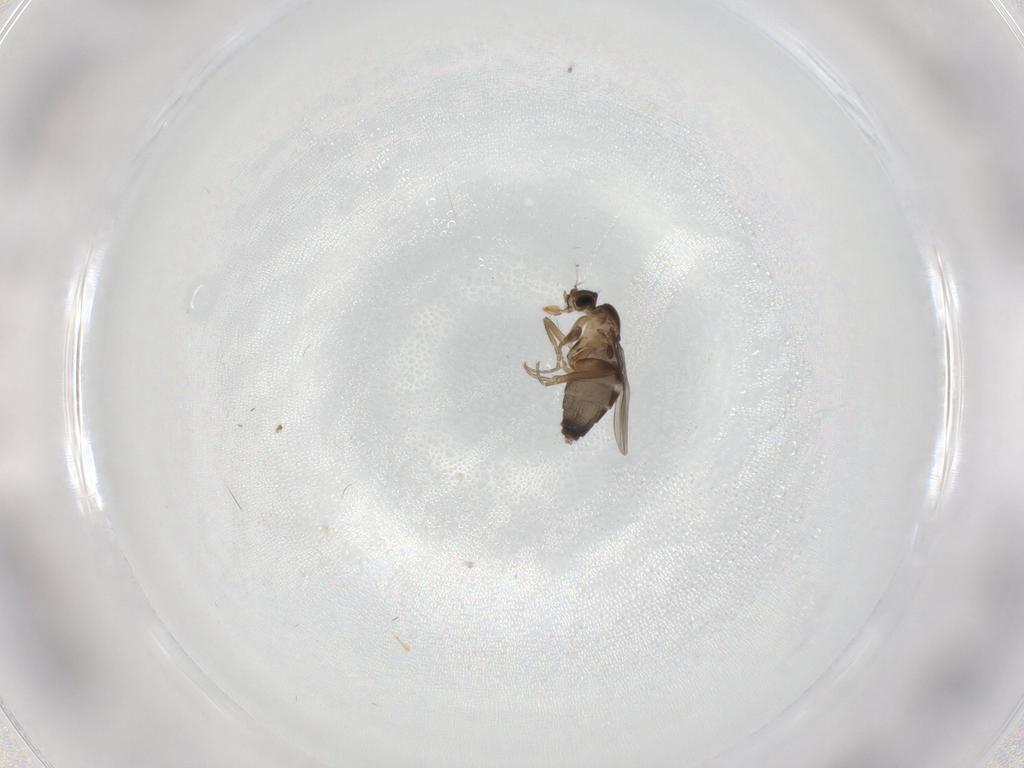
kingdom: Animalia
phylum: Arthropoda
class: Insecta
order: Diptera
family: Phoridae
